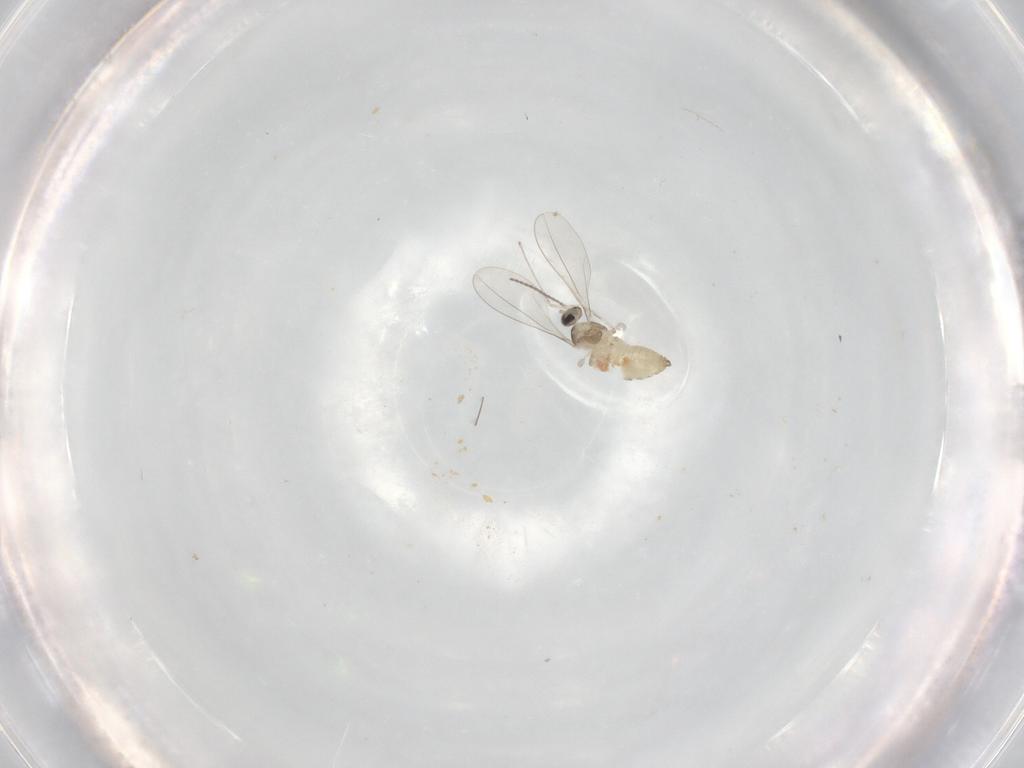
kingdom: Animalia
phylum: Arthropoda
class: Insecta
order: Diptera
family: Cecidomyiidae
